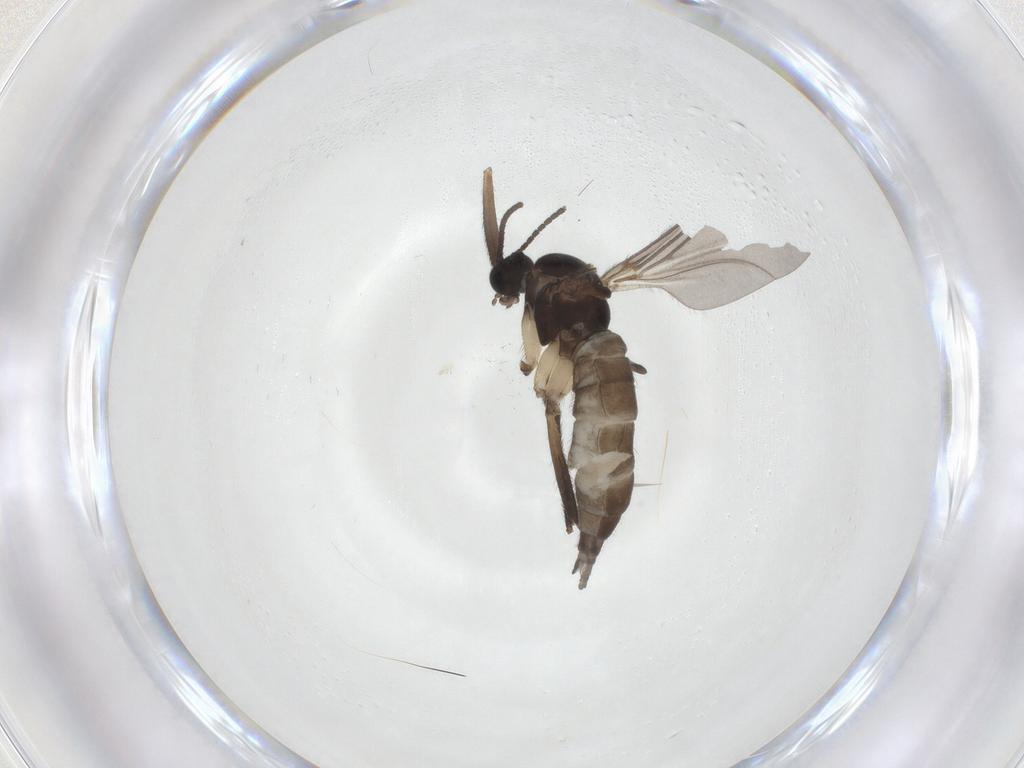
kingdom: Animalia
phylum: Arthropoda
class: Insecta
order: Diptera
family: Sciaridae
